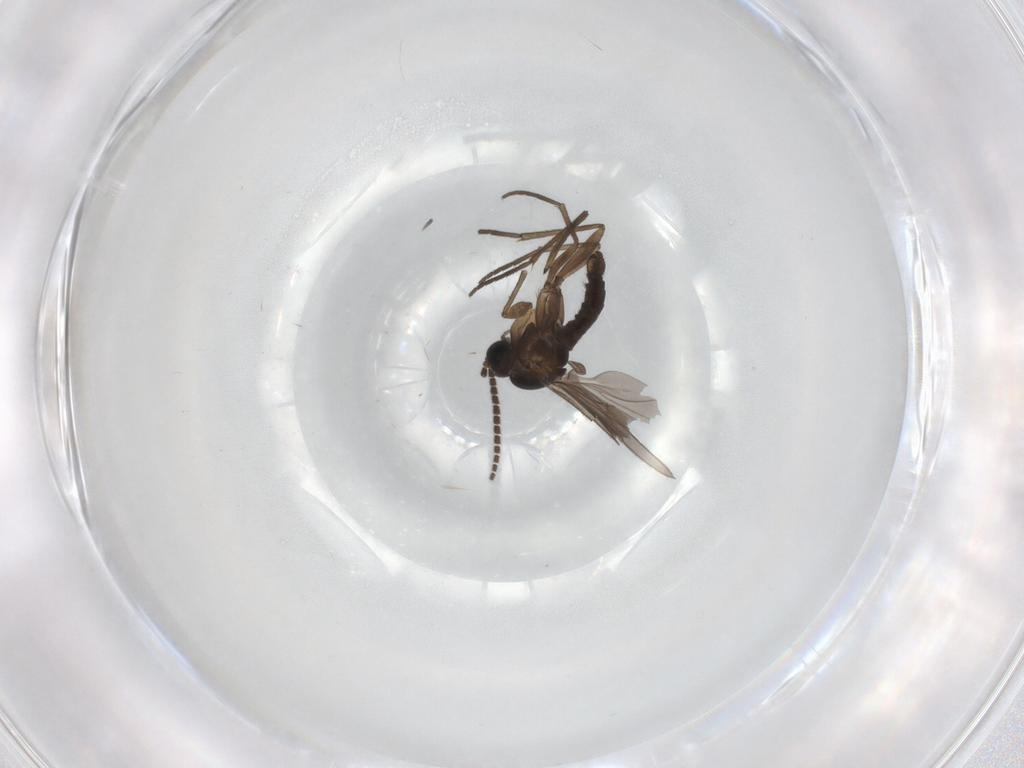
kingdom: Animalia
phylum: Arthropoda
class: Insecta
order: Diptera
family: Sciaridae
